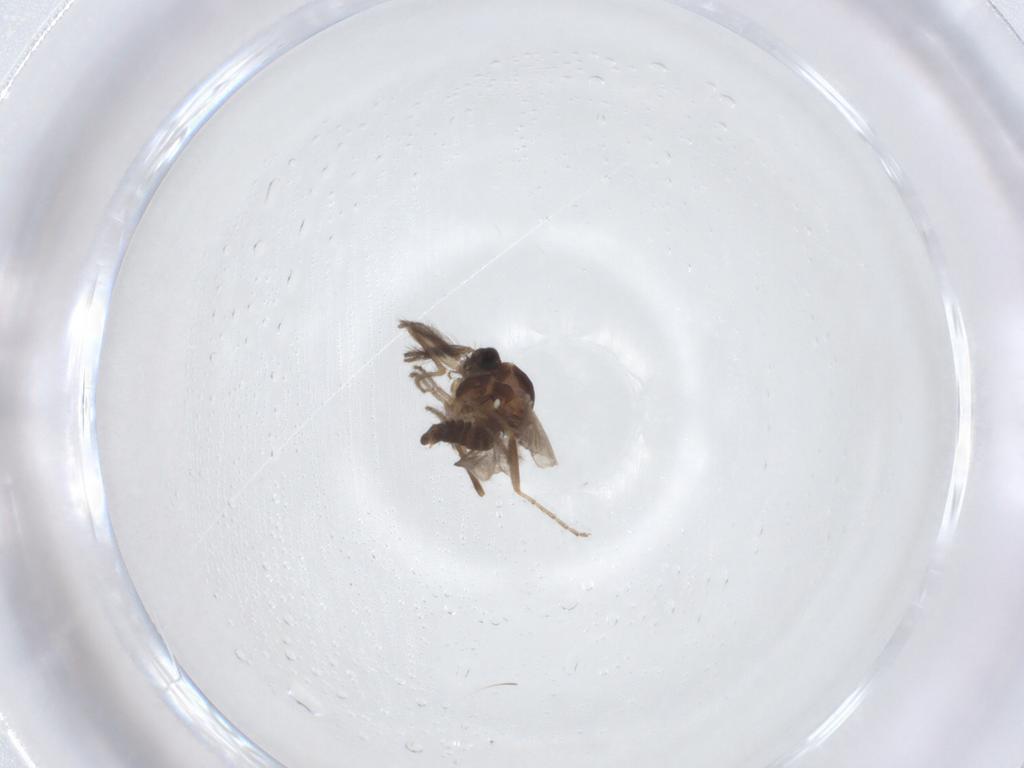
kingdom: Animalia
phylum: Arthropoda
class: Insecta
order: Diptera
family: Ceratopogonidae
